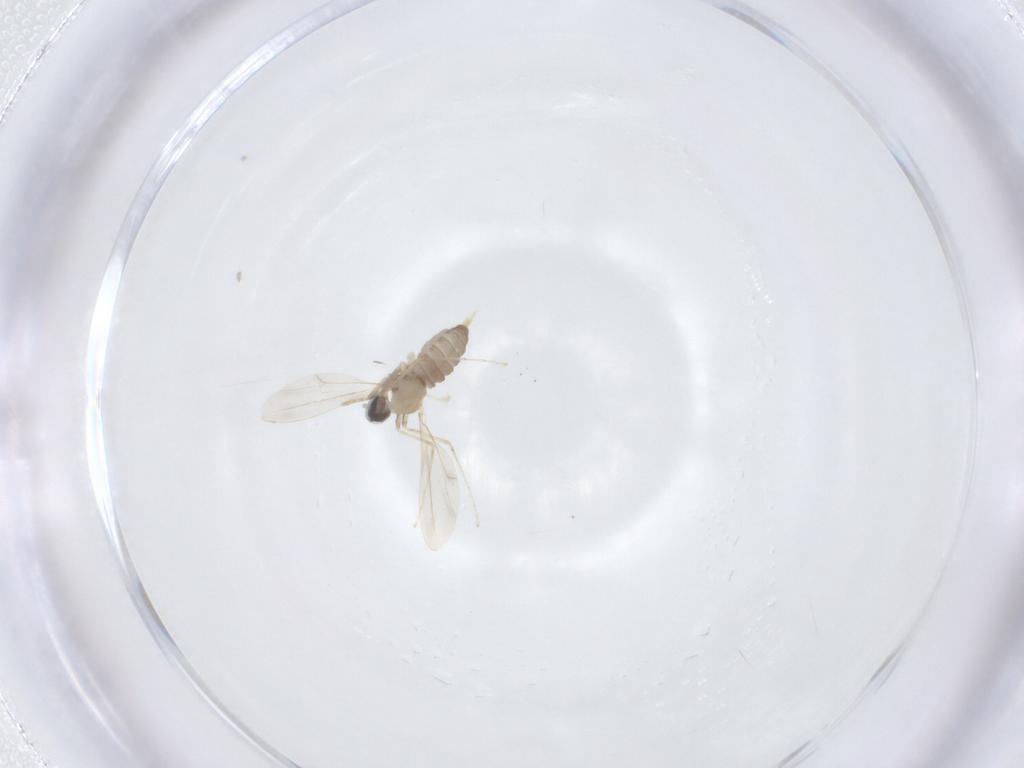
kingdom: Animalia
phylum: Arthropoda
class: Insecta
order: Diptera
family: Chironomidae
